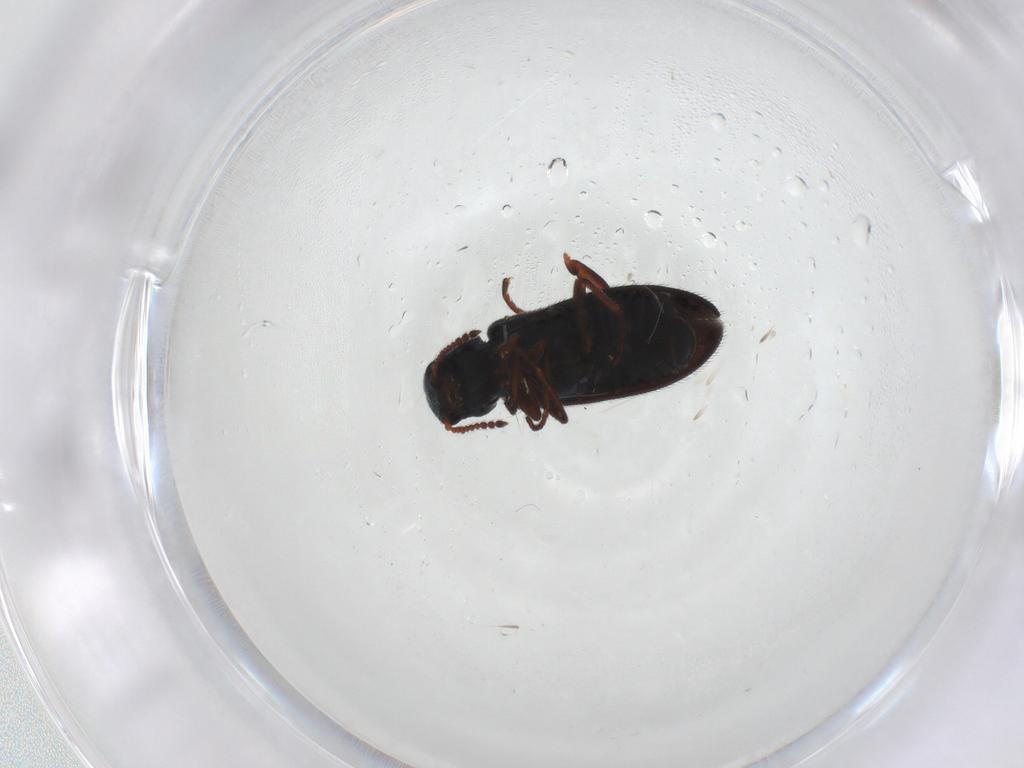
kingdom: Animalia
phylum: Arthropoda
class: Insecta
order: Coleoptera
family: Melyridae
